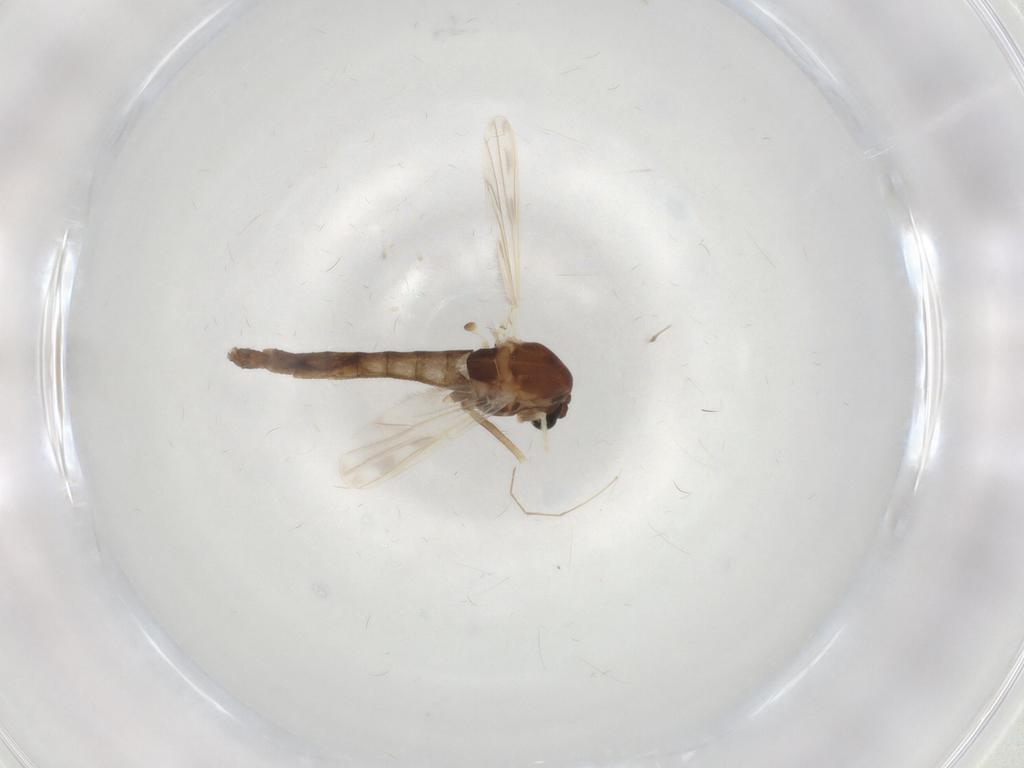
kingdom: Animalia
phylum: Arthropoda
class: Insecta
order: Diptera
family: Chironomidae
